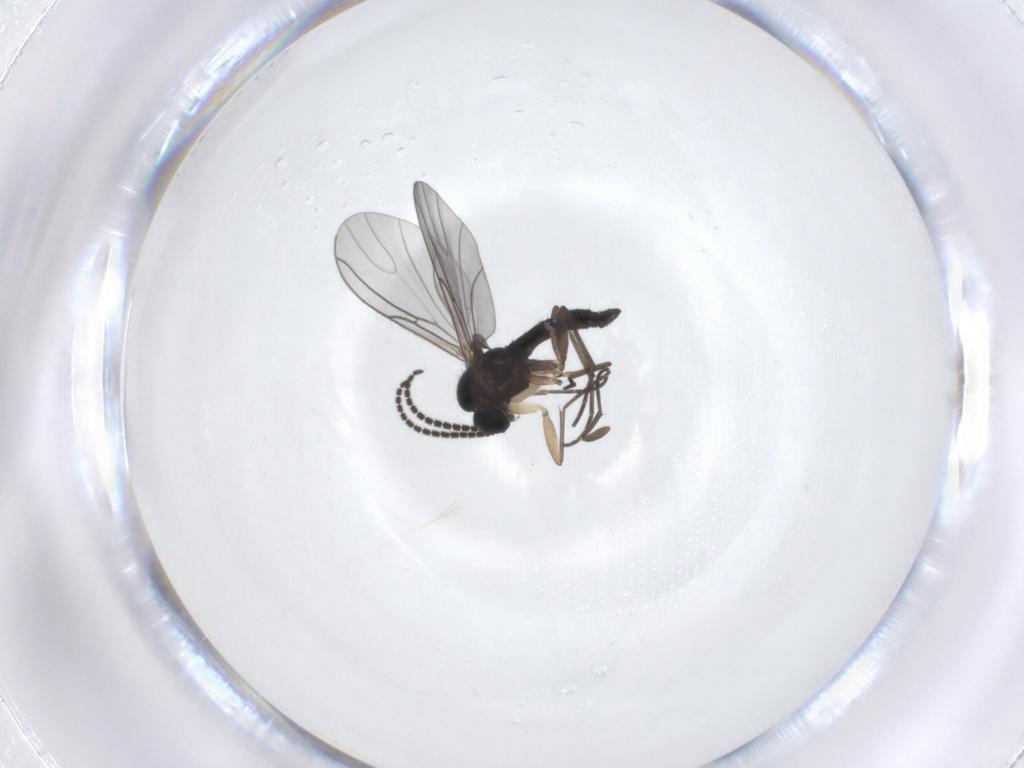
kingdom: Animalia
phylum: Arthropoda
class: Insecta
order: Diptera
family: Sciaridae
